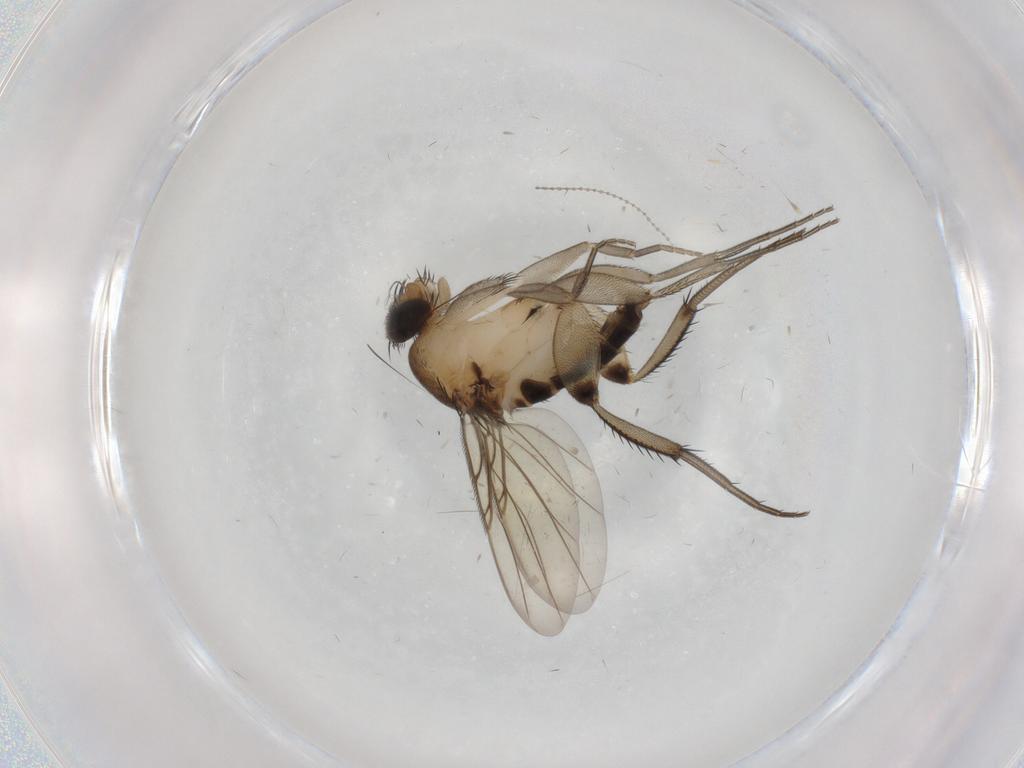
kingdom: Animalia
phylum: Arthropoda
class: Insecta
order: Diptera
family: Phoridae
